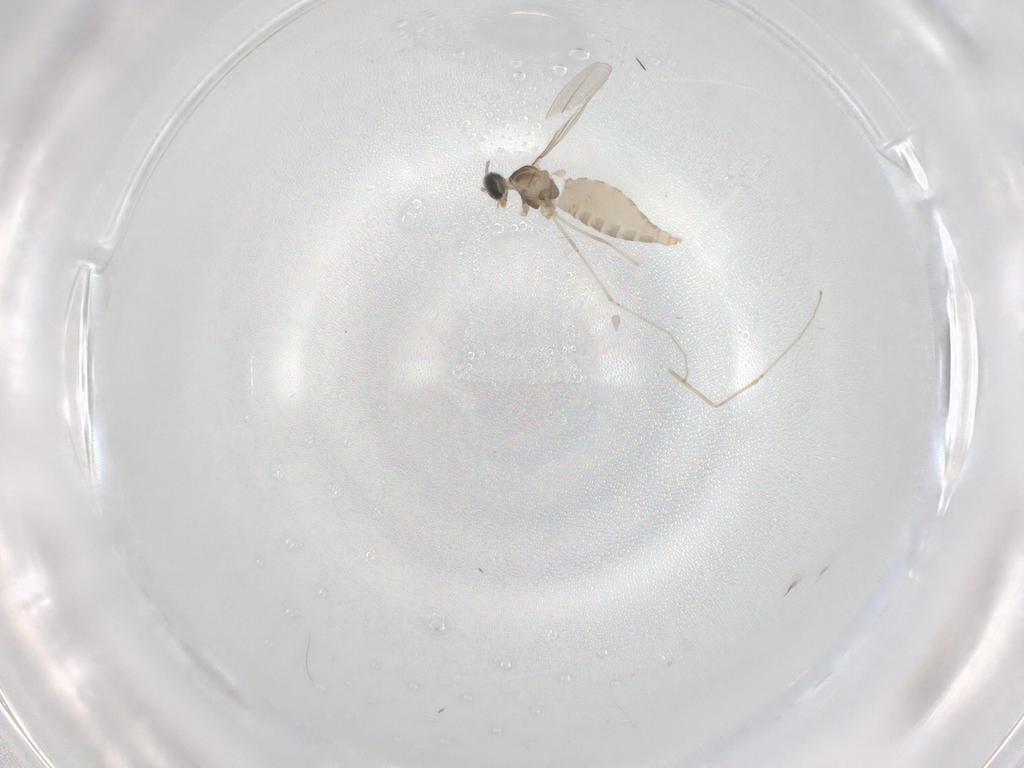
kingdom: Animalia
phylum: Arthropoda
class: Insecta
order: Diptera
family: Cecidomyiidae
